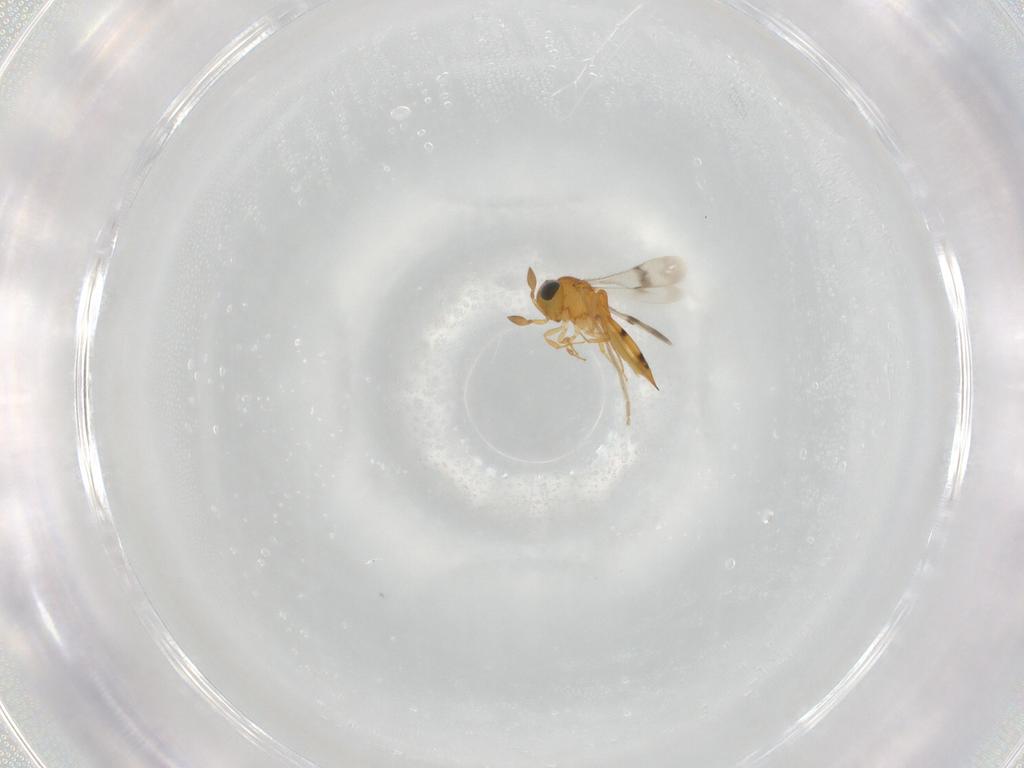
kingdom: Animalia
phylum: Arthropoda
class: Insecta
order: Hymenoptera
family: Scelionidae
